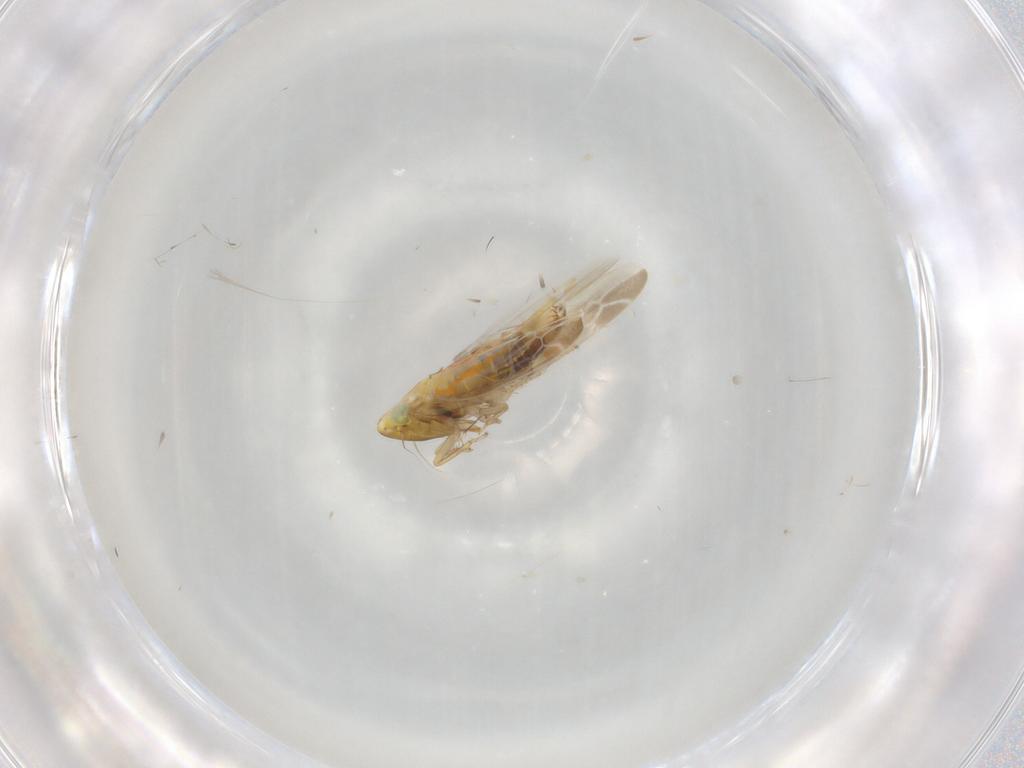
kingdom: Animalia
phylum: Arthropoda
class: Insecta
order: Hemiptera
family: Cicadellidae
